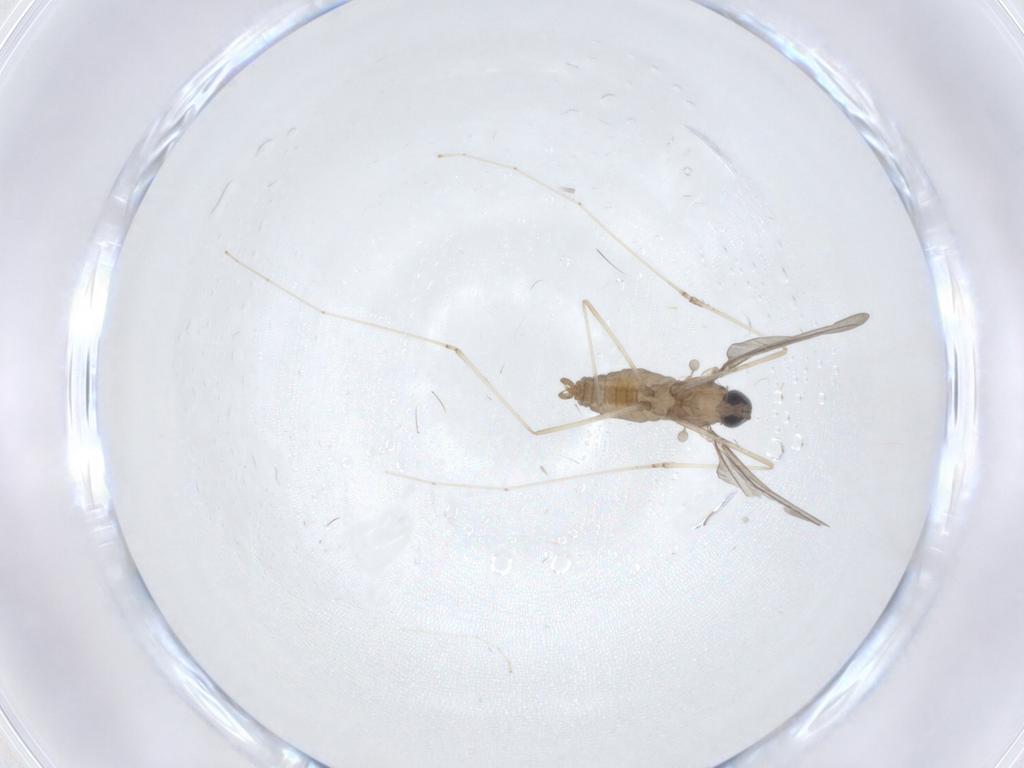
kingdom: Animalia
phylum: Arthropoda
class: Insecta
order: Diptera
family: Cecidomyiidae
